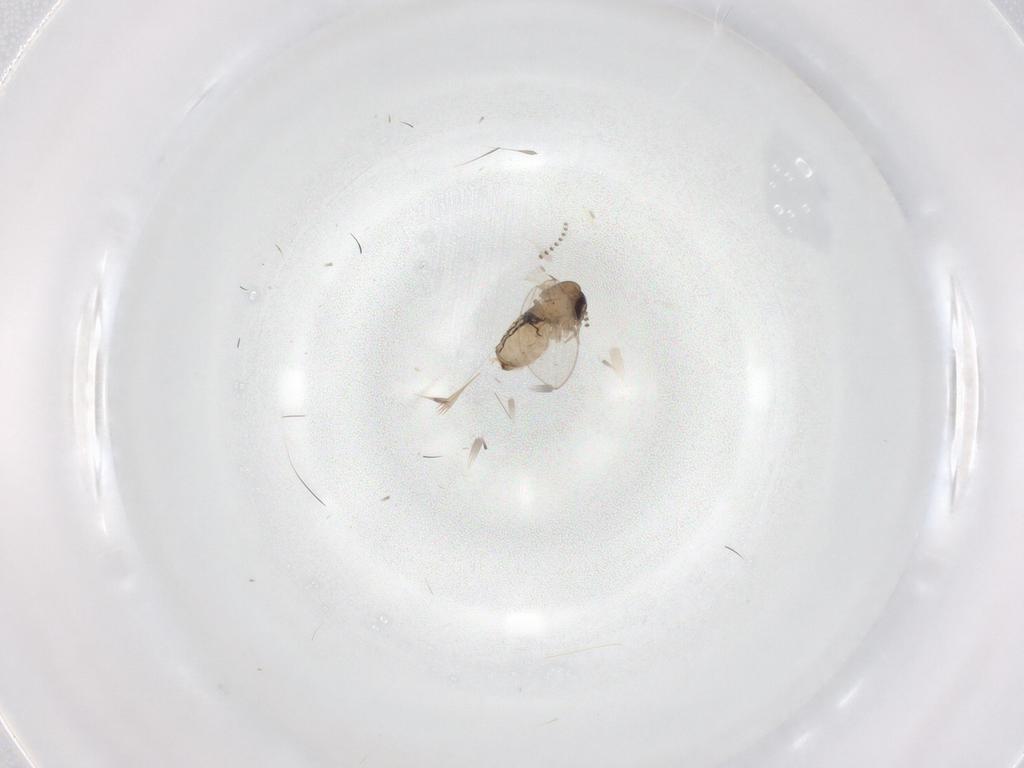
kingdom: Animalia
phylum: Arthropoda
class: Insecta
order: Diptera
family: Psychodidae
